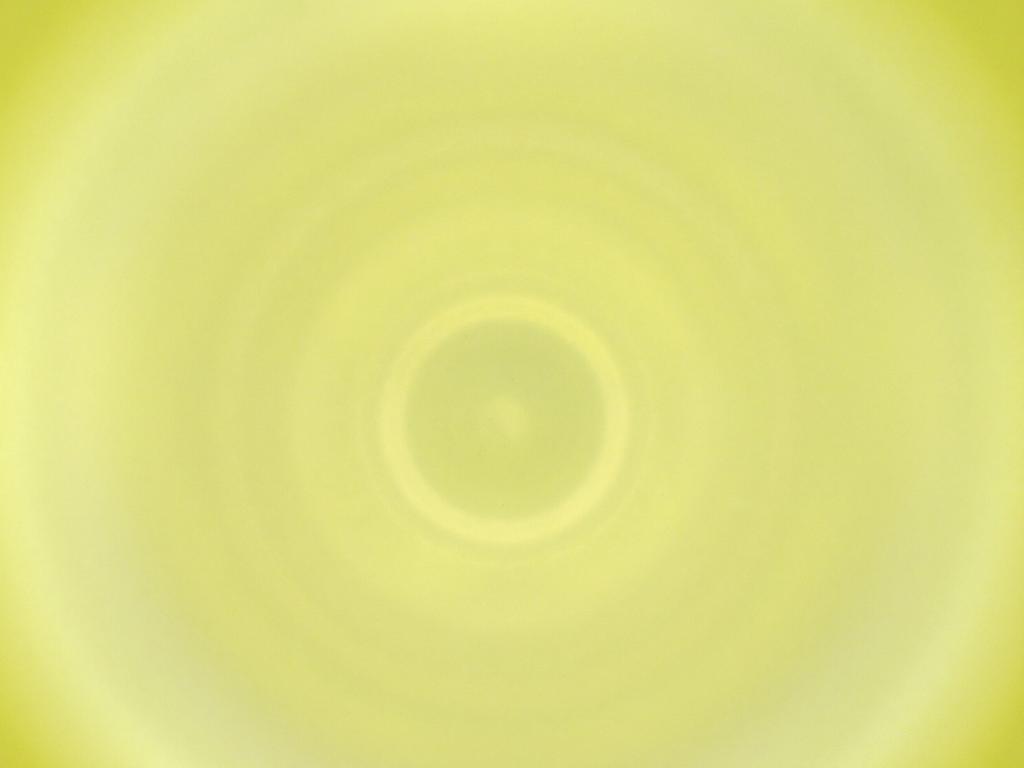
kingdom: Animalia
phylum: Arthropoda
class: Insecta
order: Diptera
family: Cecidomyiidae
